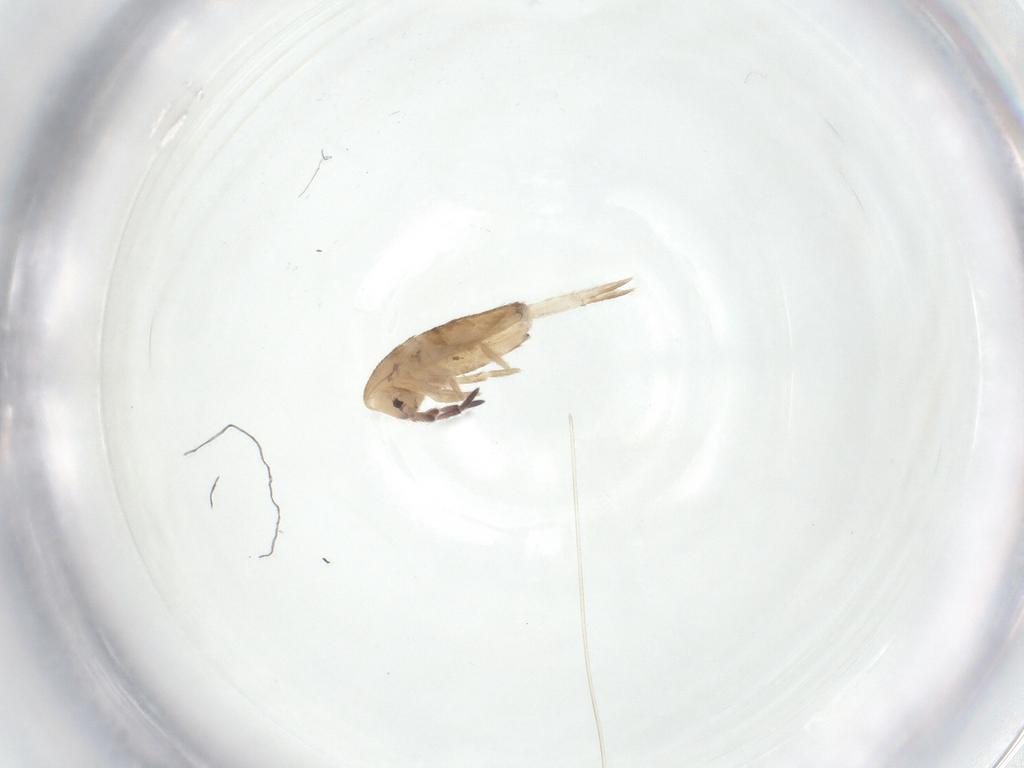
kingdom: Animalia
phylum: Arthropoda
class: Collembola
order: Entomobryomorpha
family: Entomobryidae
